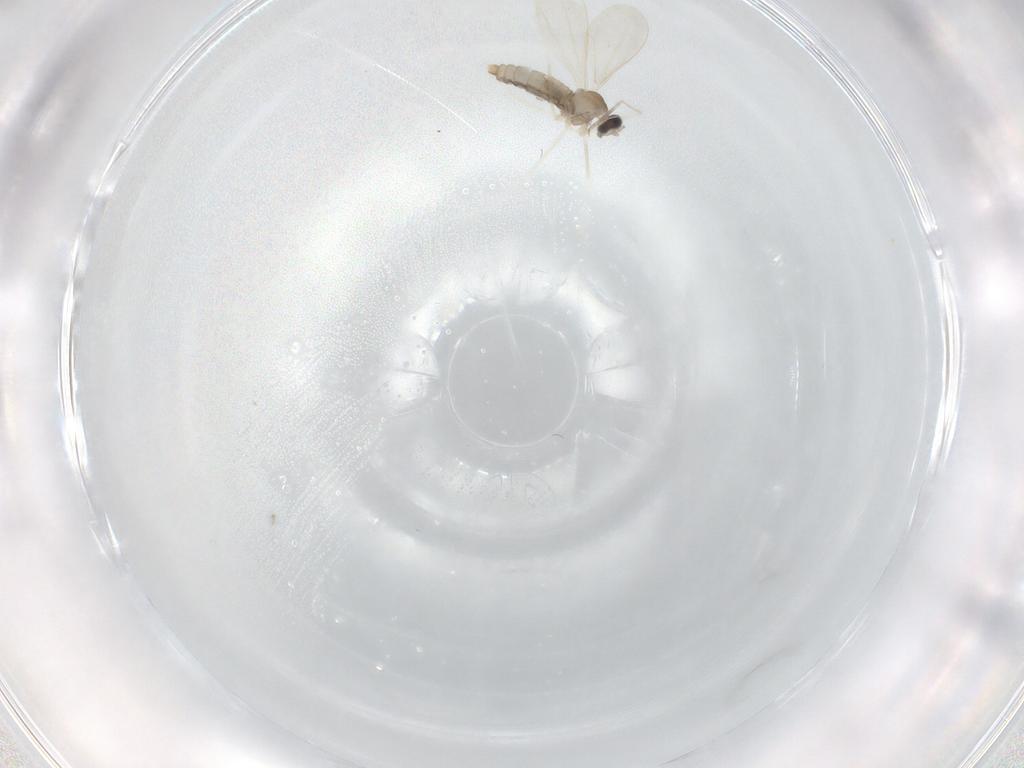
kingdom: Animalia
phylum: Arthropoda
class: Insecta
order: Diptera
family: Cecidomyiidae
